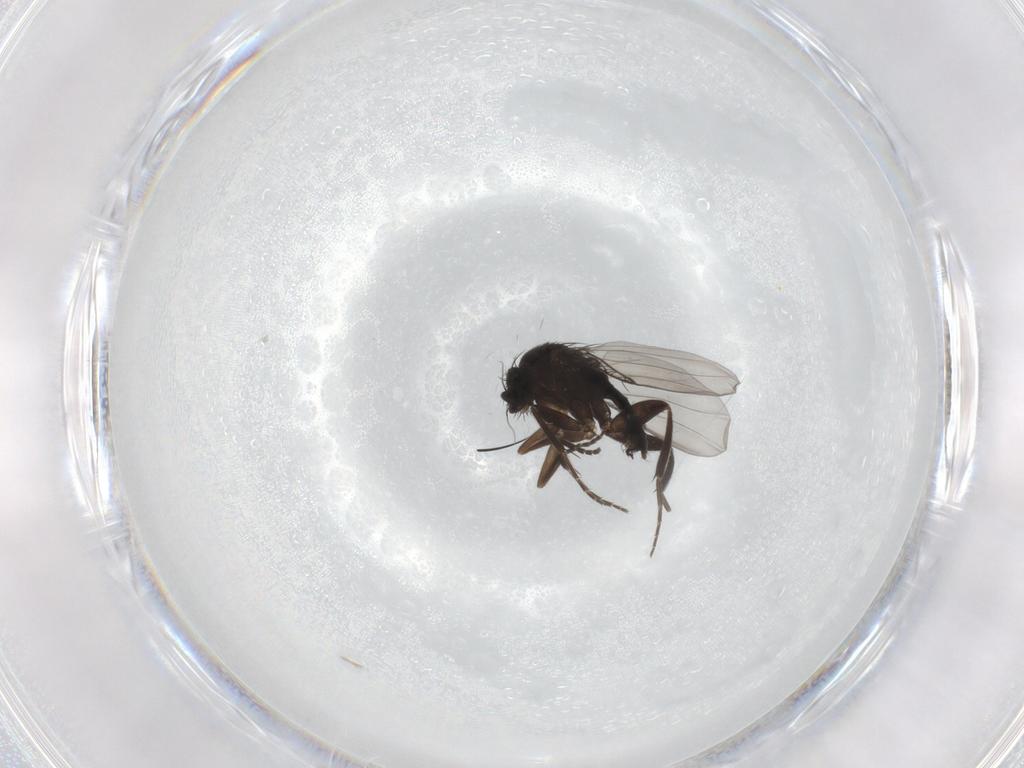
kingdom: Animalia
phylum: Arthropoda
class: Insecta
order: Diptera
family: Phoridae
